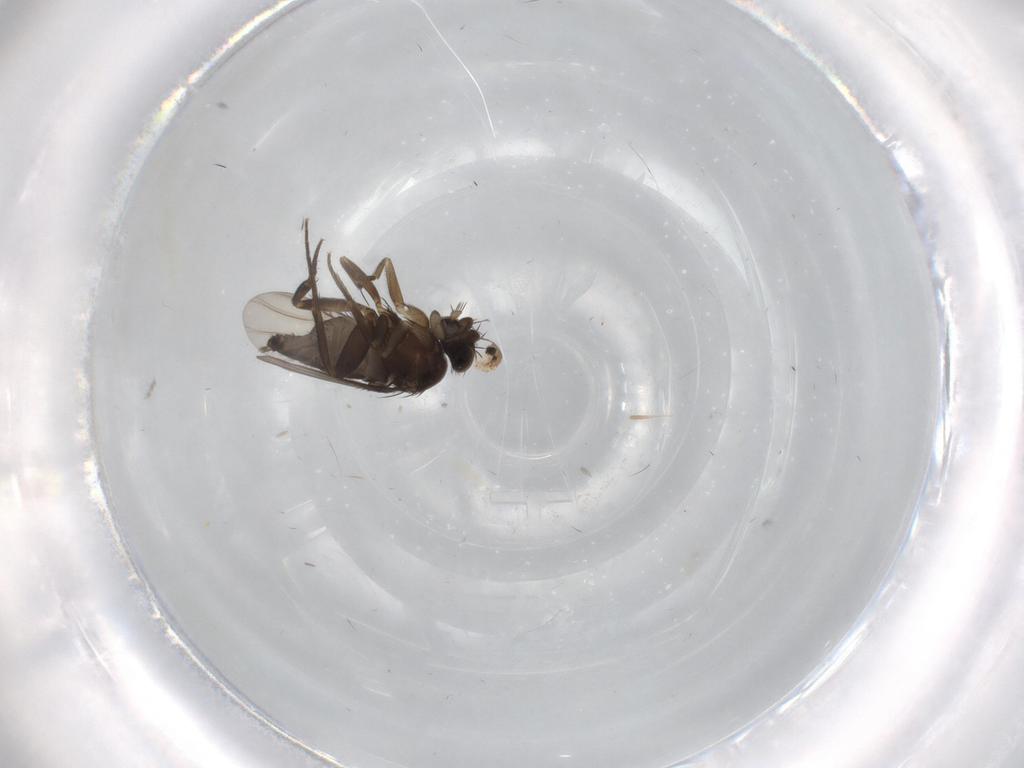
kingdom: Animalia
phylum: Arthropoda
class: Insecta
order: Diptera
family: Phoridae
